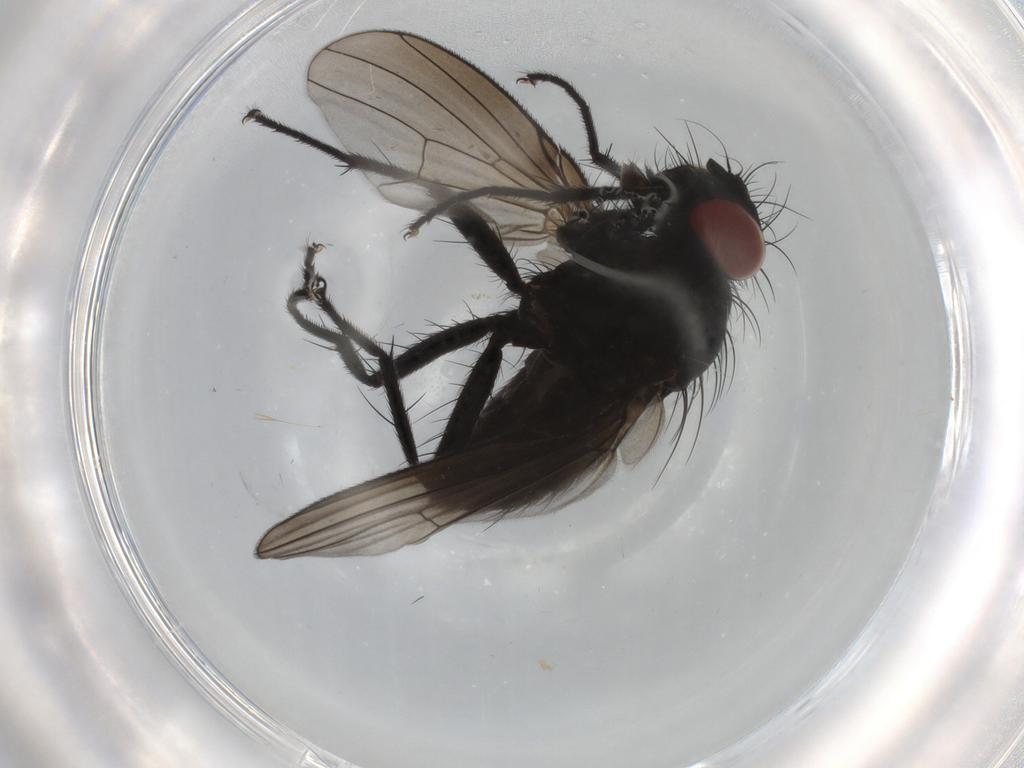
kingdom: Animalia
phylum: Arthropoda
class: Insecta
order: Diptera
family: Muscidae
